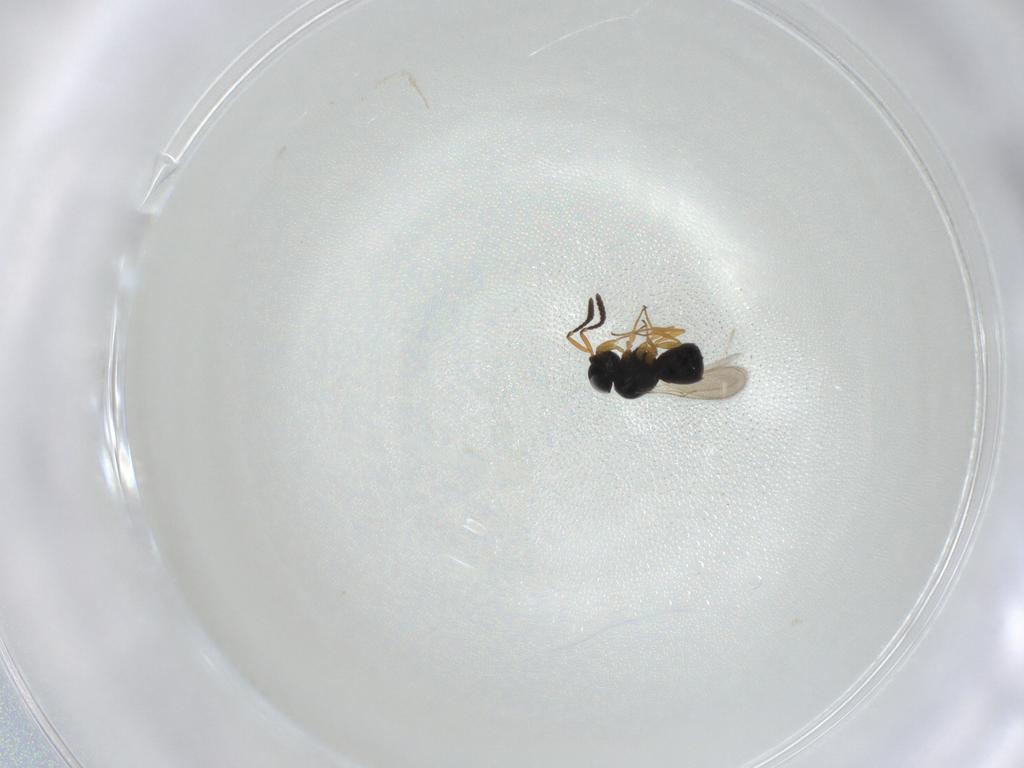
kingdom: Animalia
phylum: Arthropoda
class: Insecta
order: Hymenoptera
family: Scelionidae
